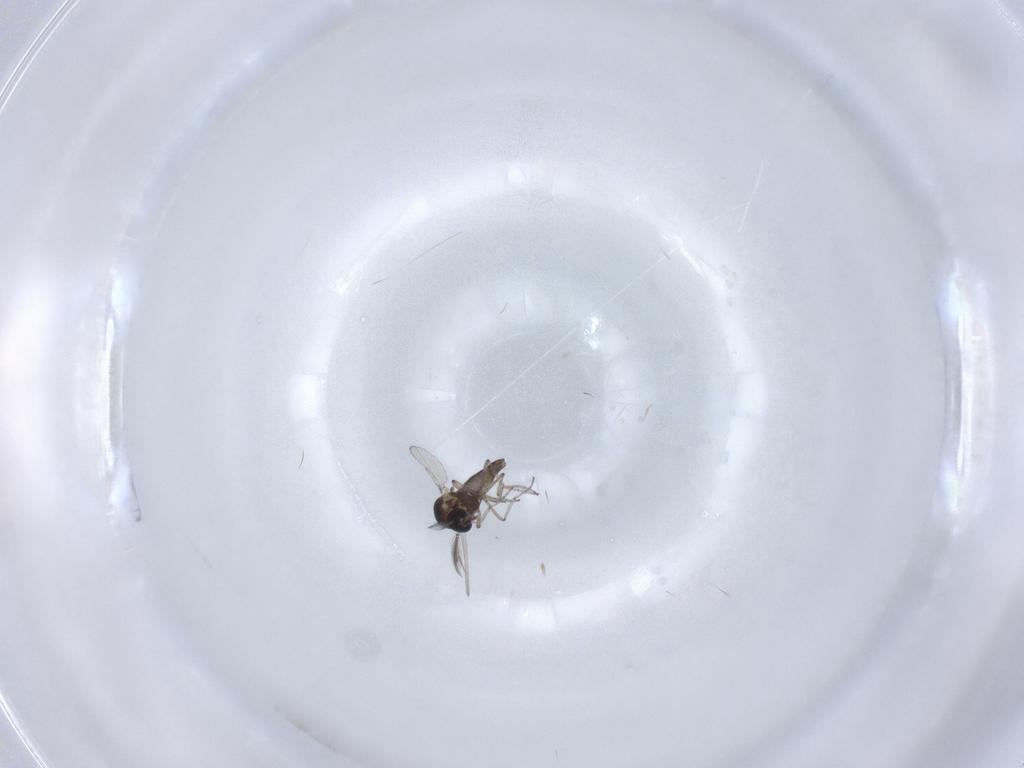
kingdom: Animalia
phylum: Arthropoda
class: Insecta
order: Diptera
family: Ceratopogonidae
